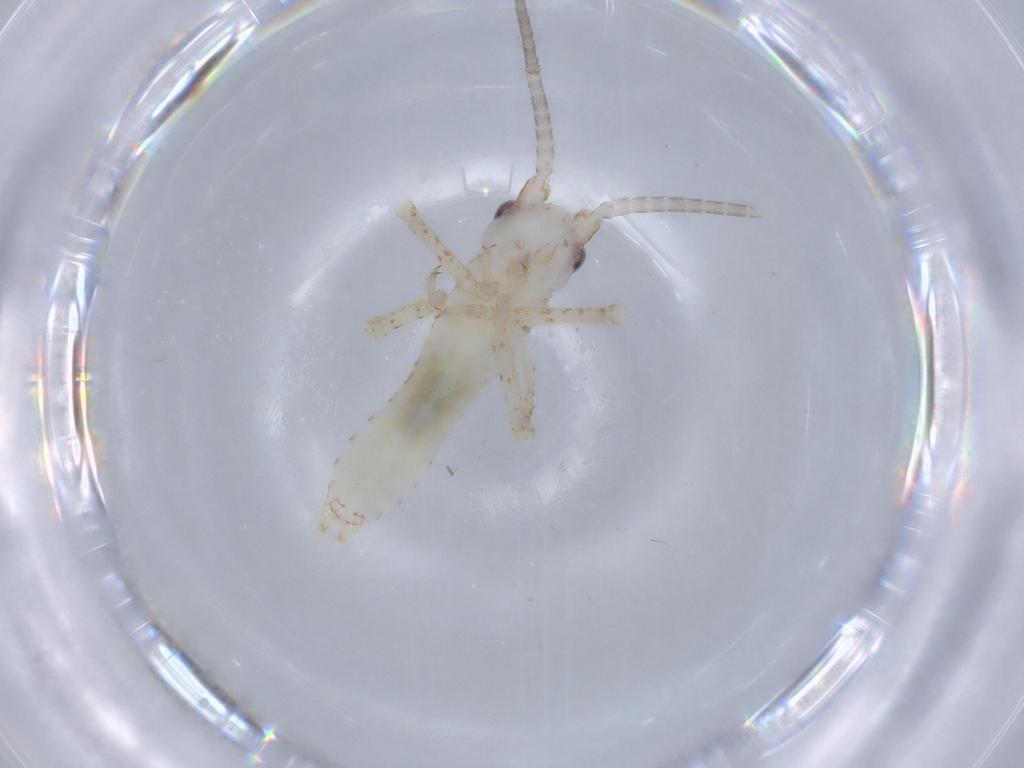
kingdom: Animalia
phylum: Arthropoda
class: Insecta
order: Orthoptera
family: Gryllidae
